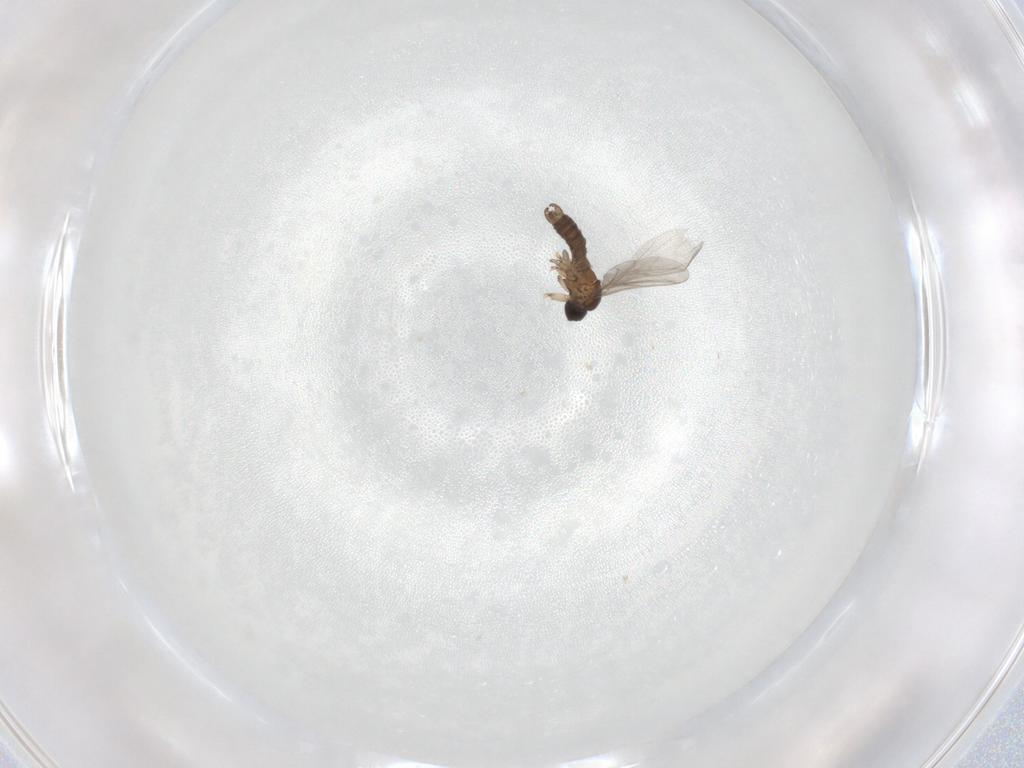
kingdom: Animalia
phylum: Arthropoda
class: Insecta
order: Diptera
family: Sciaridae
